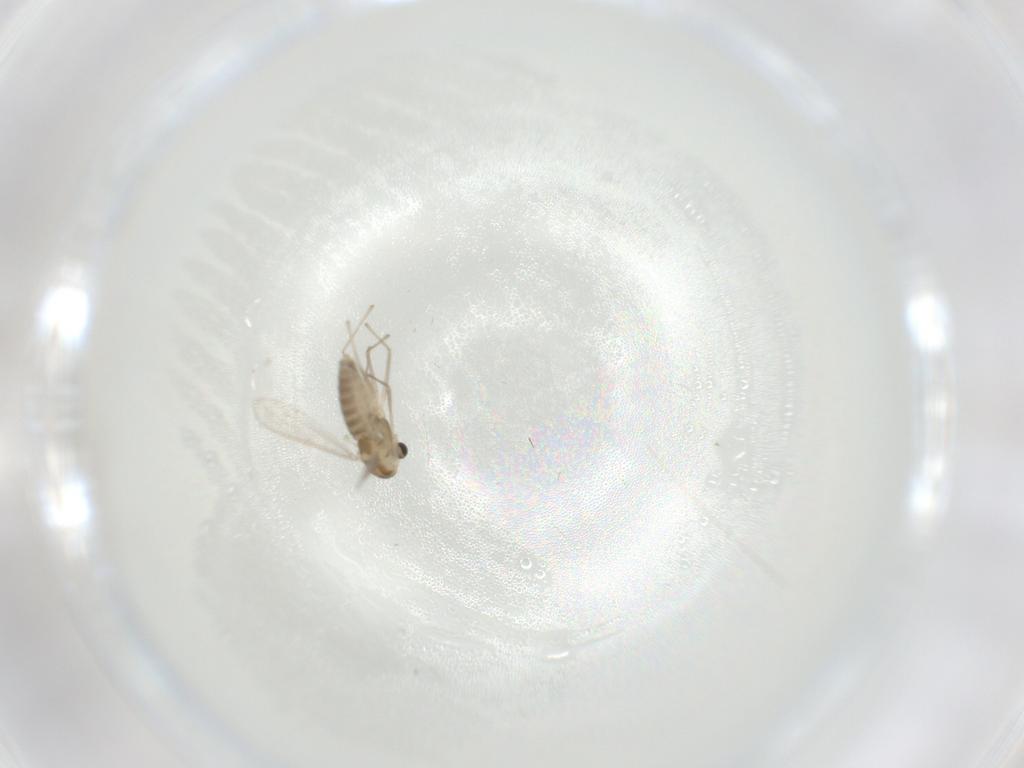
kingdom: Animalia
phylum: Arthropoda
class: Insecta
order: Diptera
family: Chironomidae
